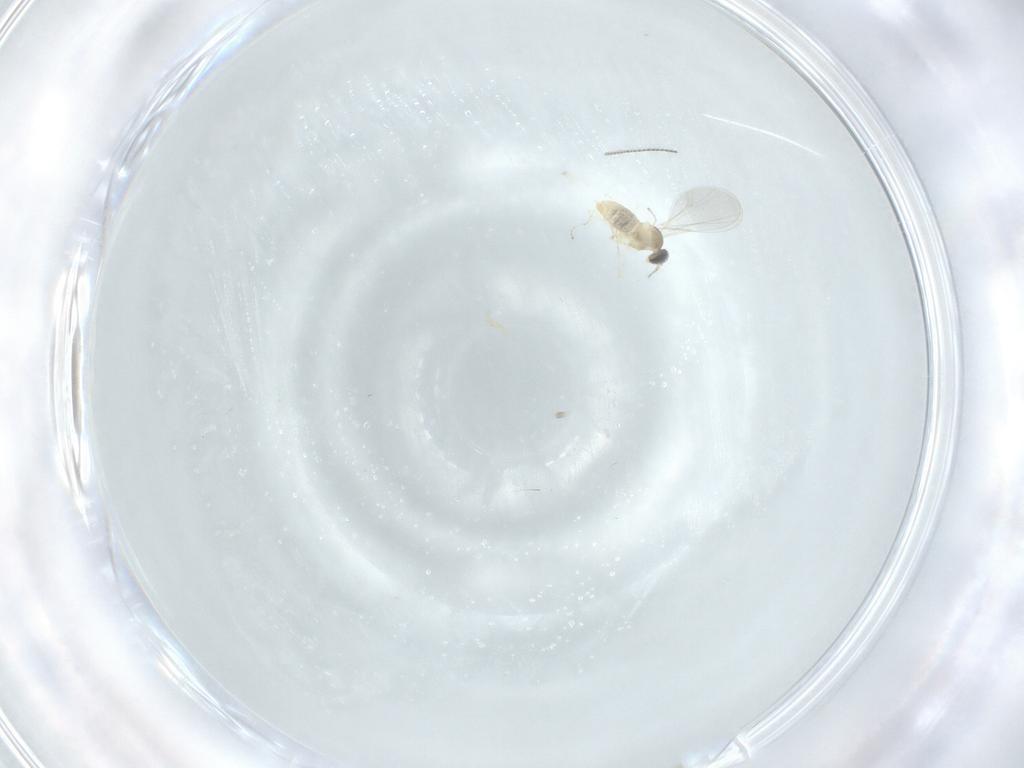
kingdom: Animalia
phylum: Arthropoda
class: Insecta
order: Diptera
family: Cecidomyiidae
